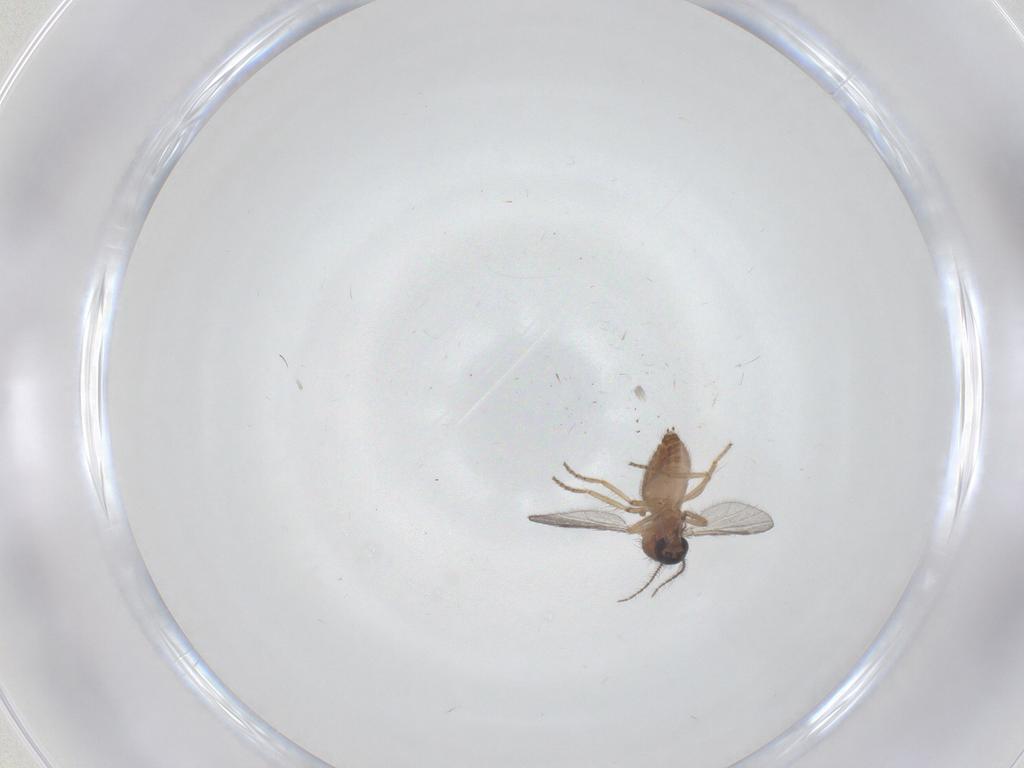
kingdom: Animalia
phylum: Arthropoda
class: Insecta
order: Diptera
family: Ceratopogonidae
